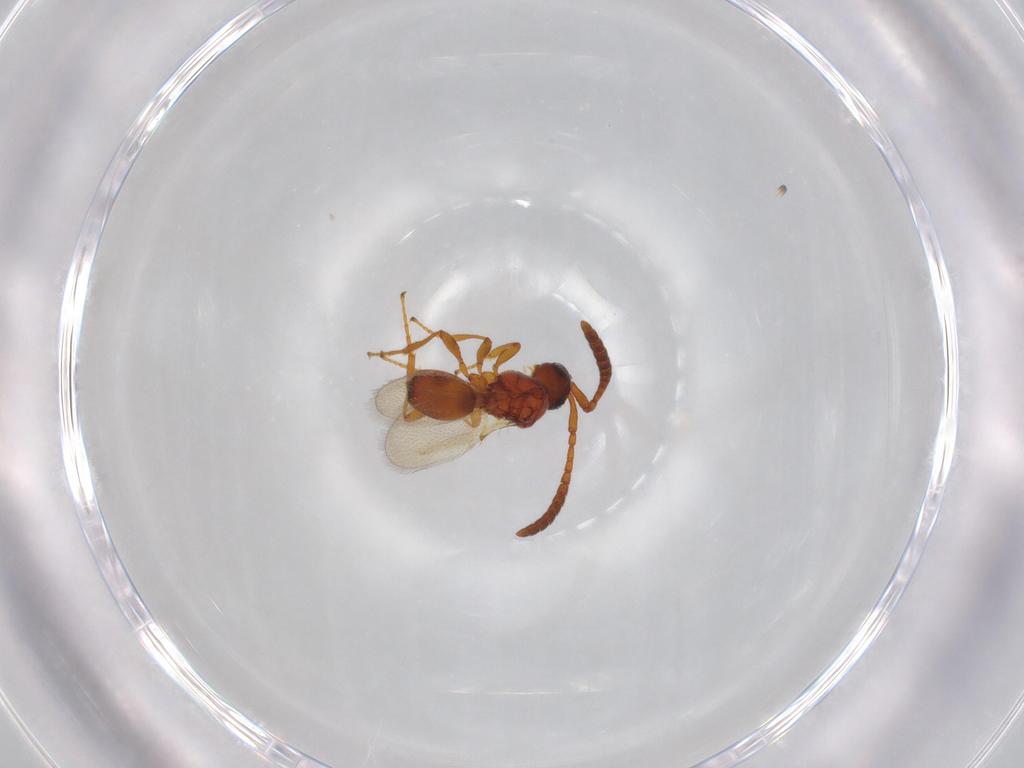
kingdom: Animalia
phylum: Arthropoda
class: Insecta
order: Hymenoptera
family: Diapriidae
